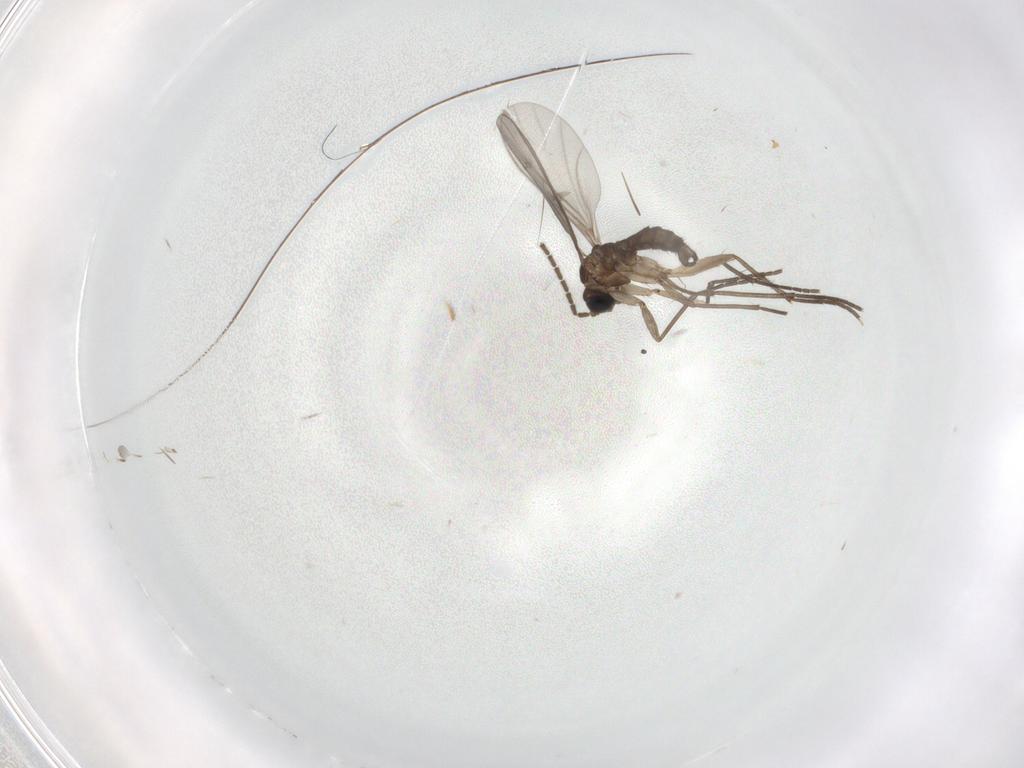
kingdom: Animalia
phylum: Arthropoda
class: Insecta
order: Diptera
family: Sciaridae
